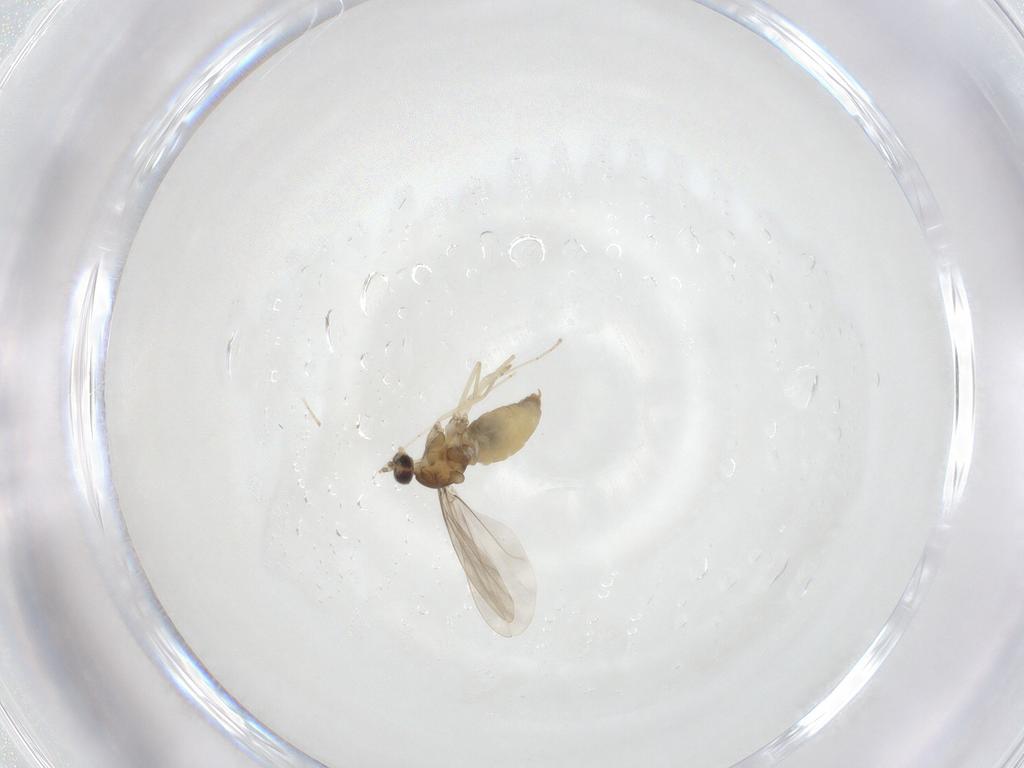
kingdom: Animalia
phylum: Arthropoda
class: Insecta
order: Diptera
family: Cecidomyiidae
